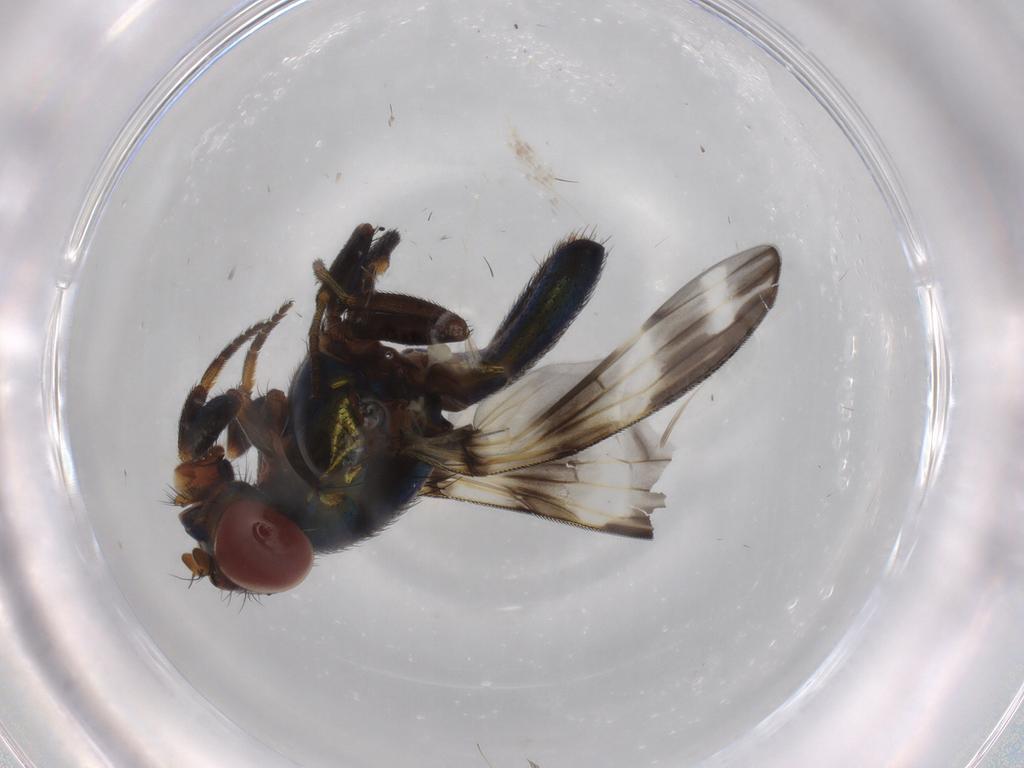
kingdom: Animalia
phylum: Arthropoda
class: Insecta
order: Diptera
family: Ulidiidae
